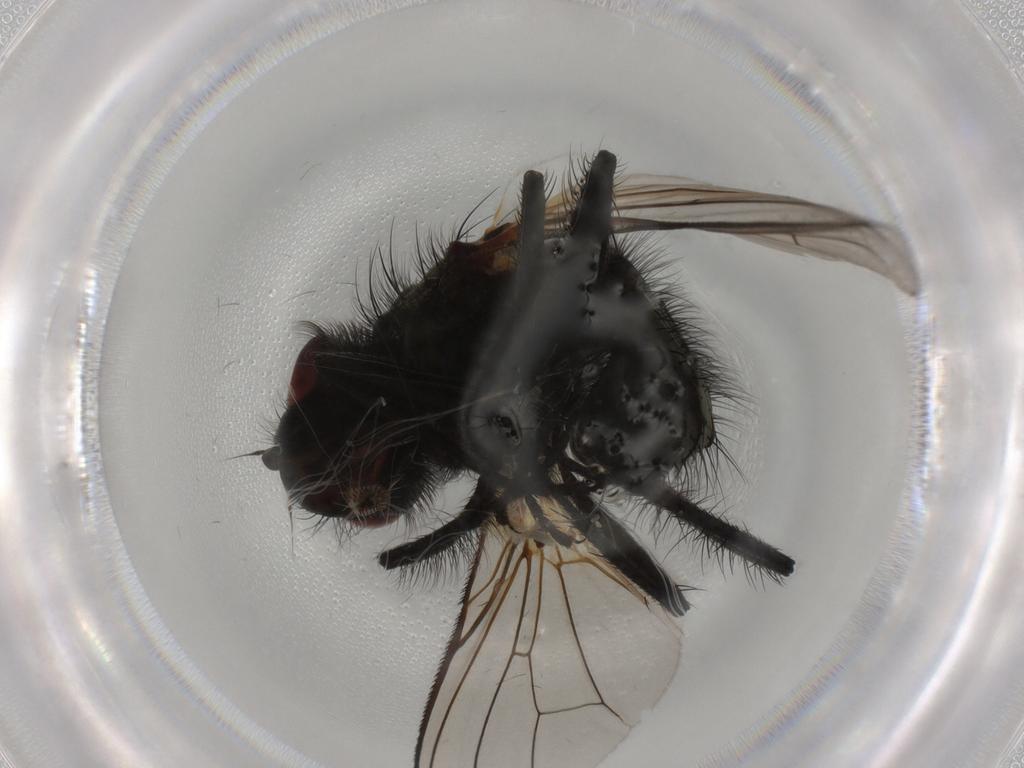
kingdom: Animalia
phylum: Arthropoda
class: Insecta
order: Diptera
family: Anthomyiidae
